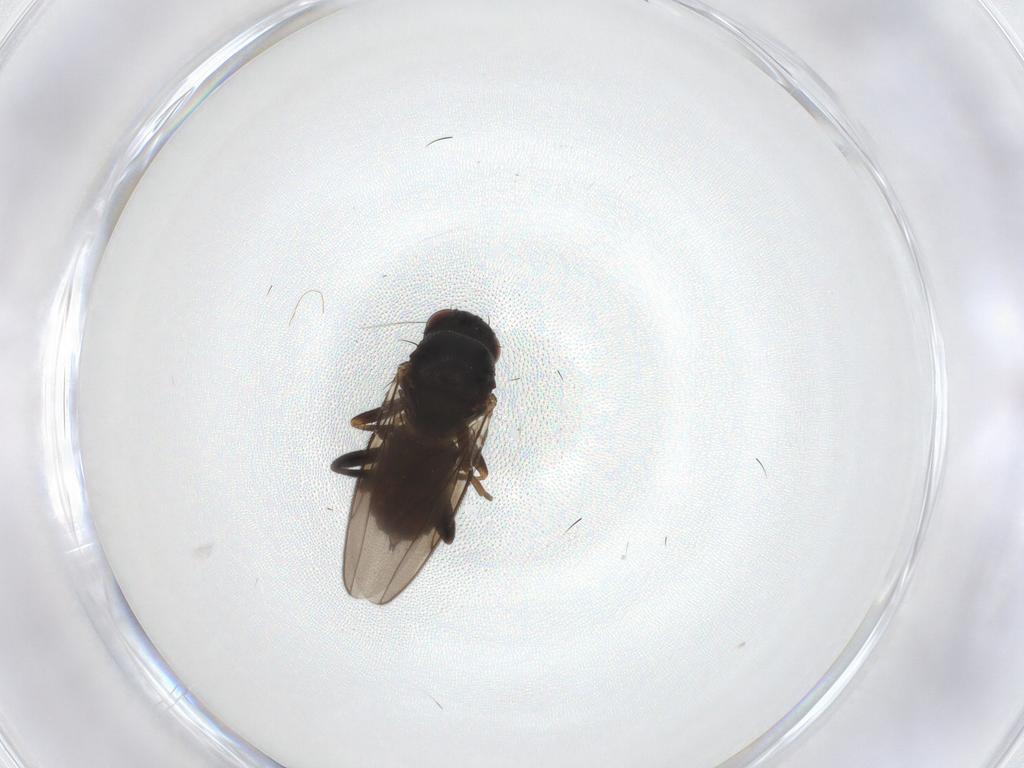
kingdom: Animalia
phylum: Arthropoda
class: Insecta
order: Diptera
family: Sphaeroceridae
